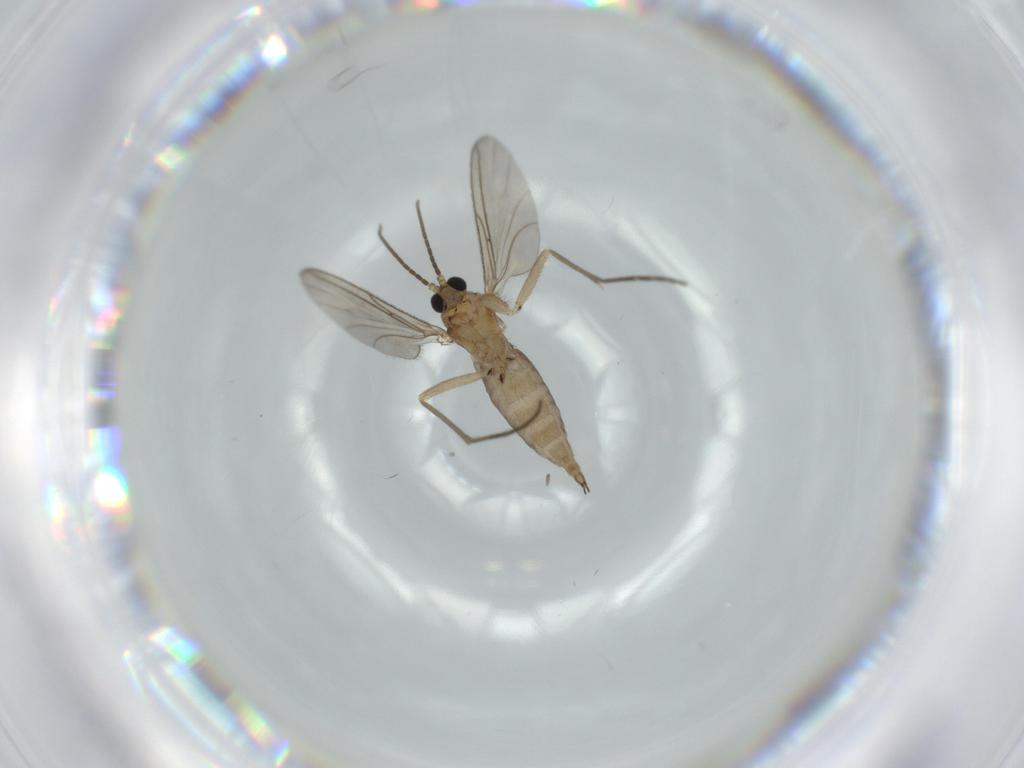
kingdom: Animalia
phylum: Arthropoda
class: Insecta
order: Diptera
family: Sciaridae
